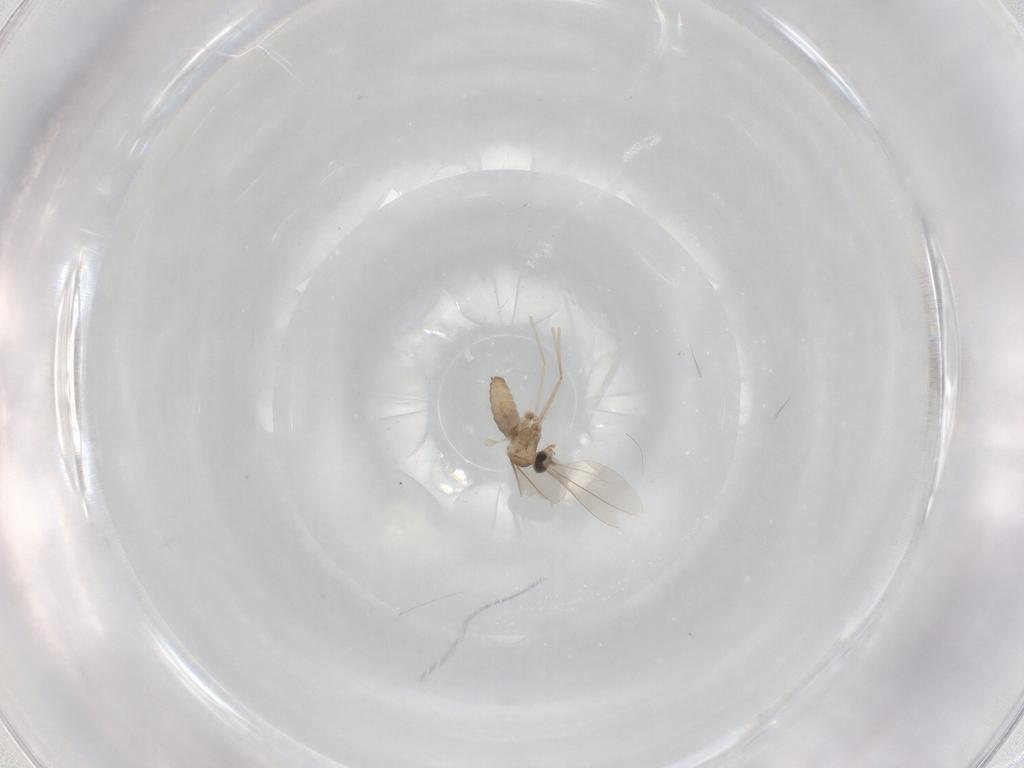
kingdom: Animalia
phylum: Arthropoda
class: Insecta
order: Diptera
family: Cecidomyiidae
